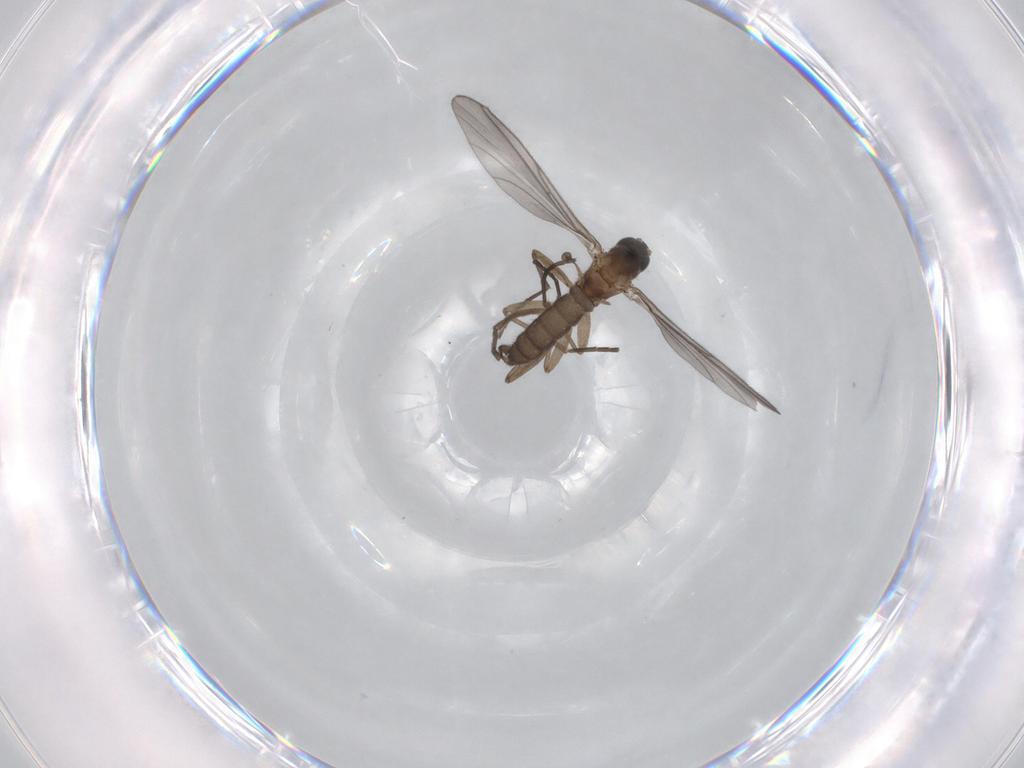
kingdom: Animalia
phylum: Arthropoda
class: Insecta
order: Diptera
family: Sciaridae
